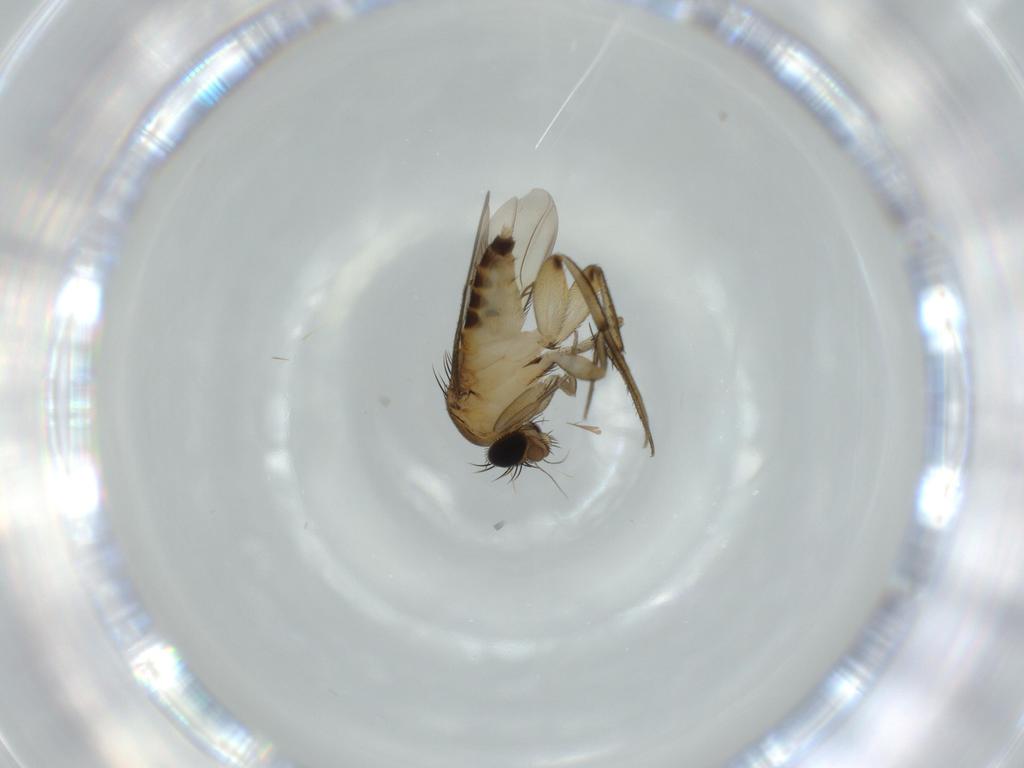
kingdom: Animalia
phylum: Arthropoda
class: Insecta
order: Diptera
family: Phoridae
